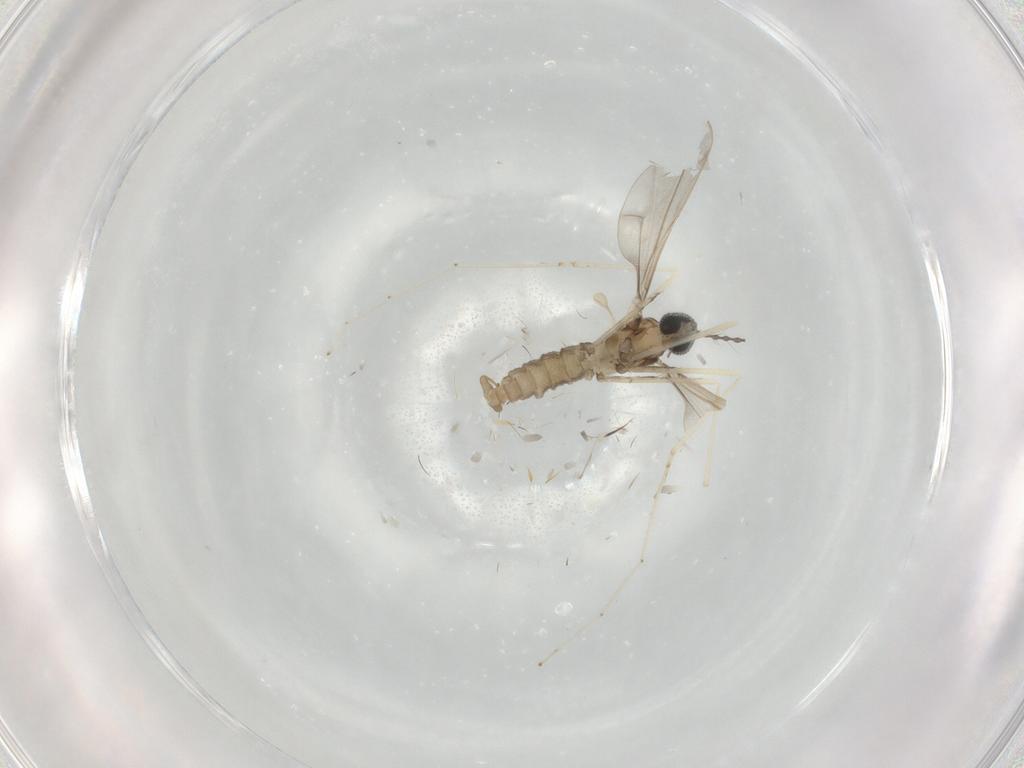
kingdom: Animalia
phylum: Arthropoda
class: Insecta
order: Diptera
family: Cecidomyiidae
